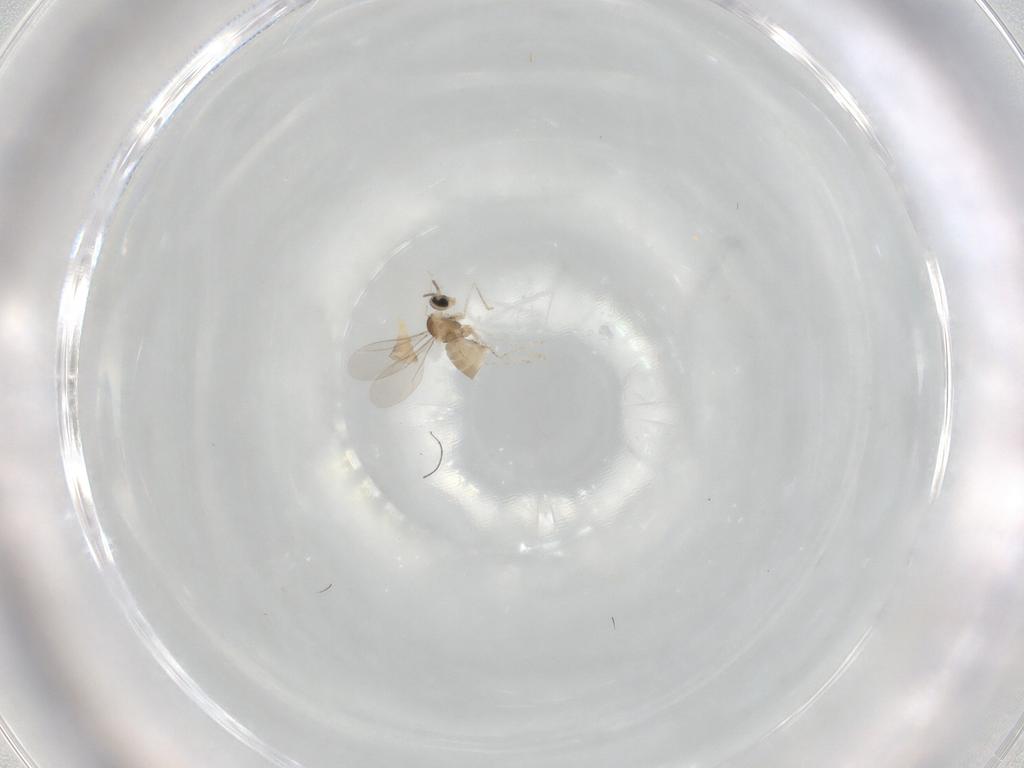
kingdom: Animalia
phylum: Arthropoda
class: Insecta
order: Diptera
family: Cecidomyiidae
